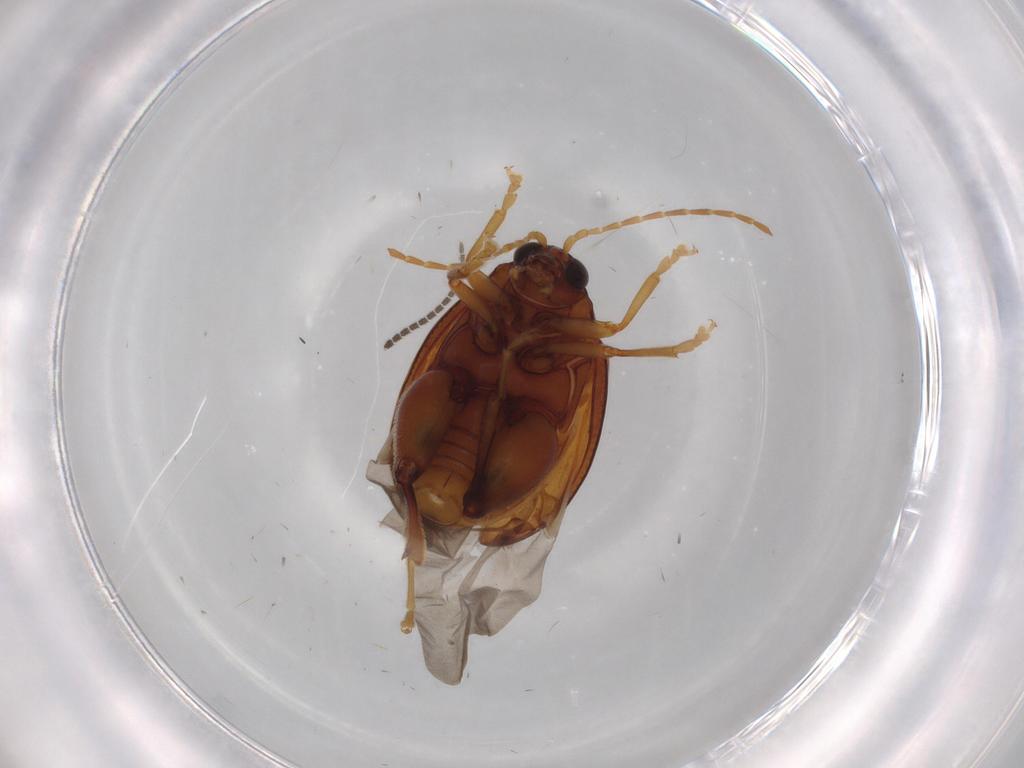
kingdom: Animalia
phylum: Arthropoda
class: Insecta
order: Coleoptera
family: Chrysomelidae
